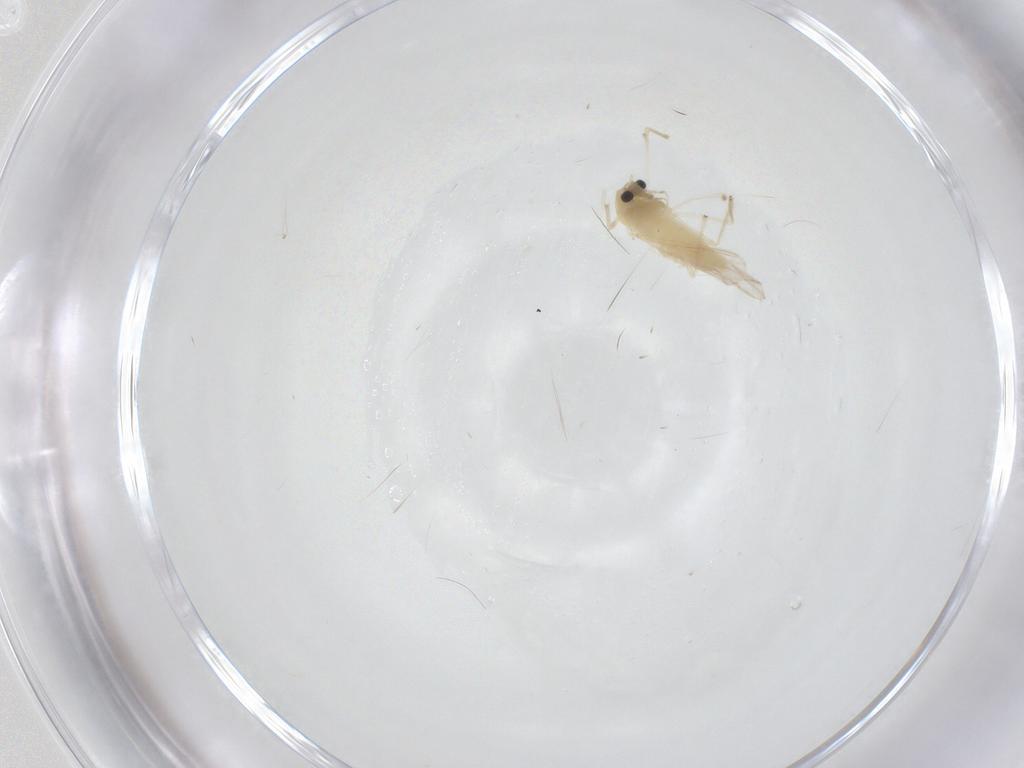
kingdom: Animalia
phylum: Arthropoda
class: Insecta
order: Diptera
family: Chironomidae
